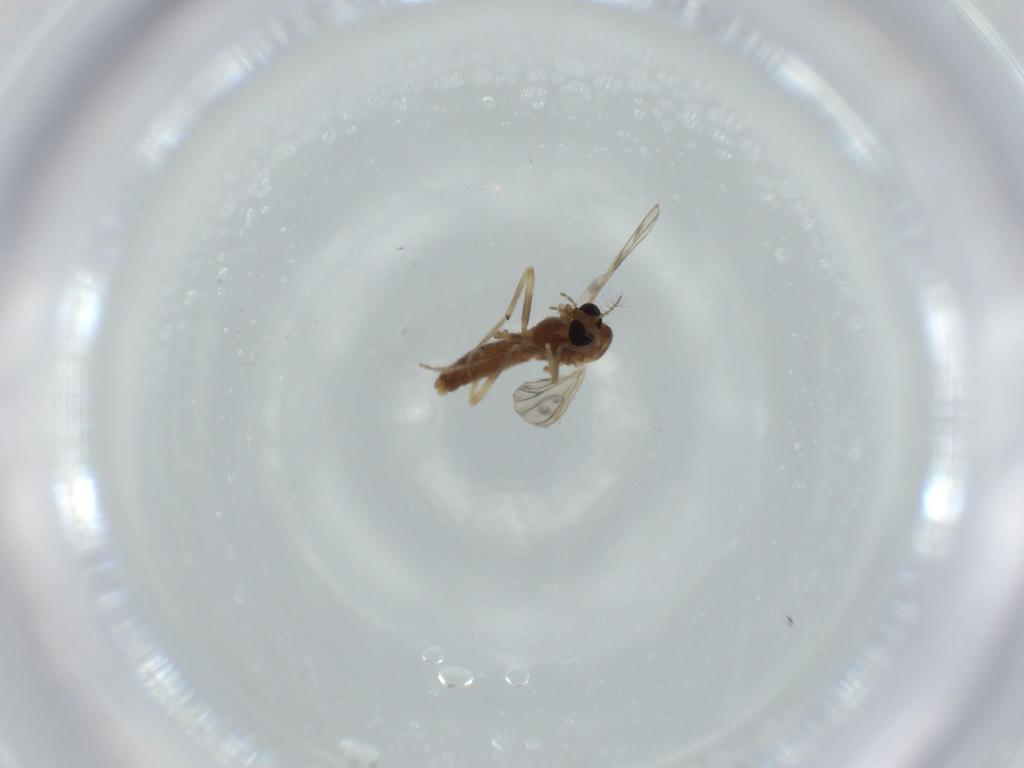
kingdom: Animalia
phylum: Arthropoda
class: Insecta
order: Diptera
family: Chironomidae
